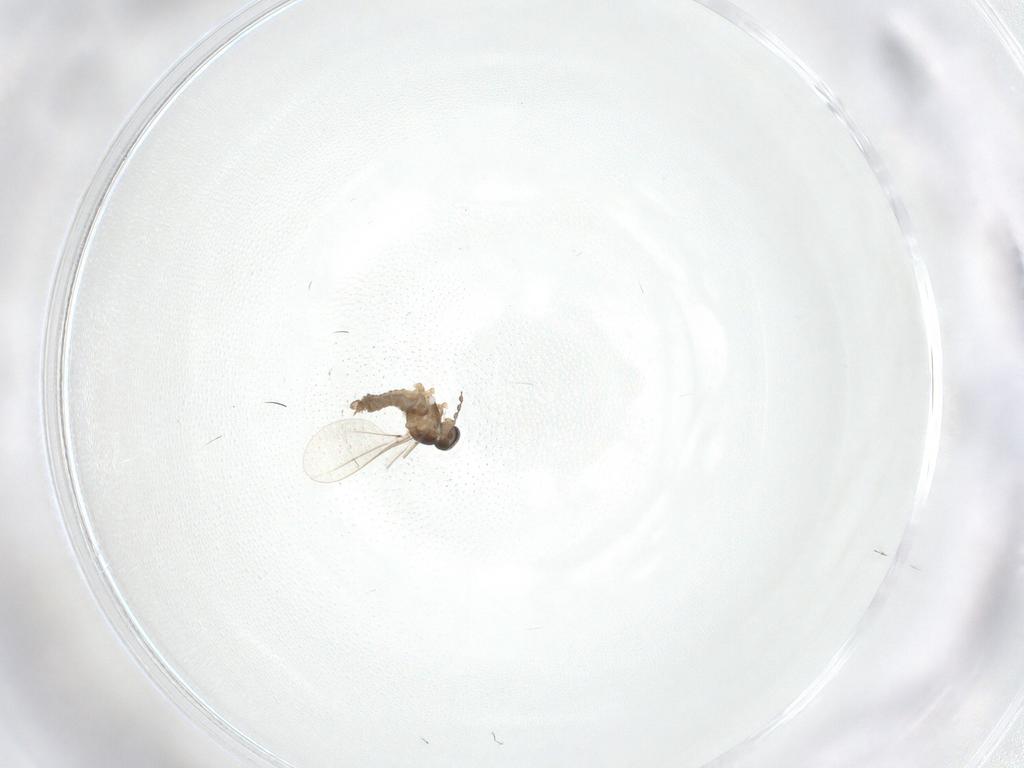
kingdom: Animalia
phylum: Arthropoda
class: Insecta
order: Diptera
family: Cecidomyiidae
